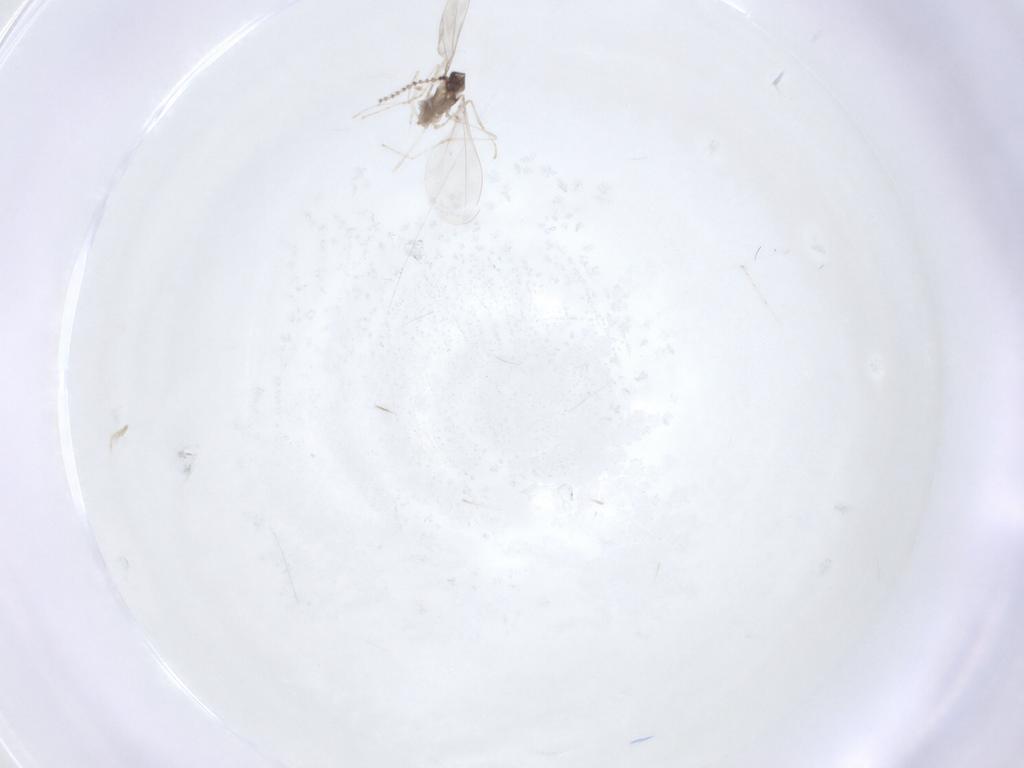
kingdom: Animalia
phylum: Arthropoda
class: Insecta
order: Diptera
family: Cecidomyiidae
